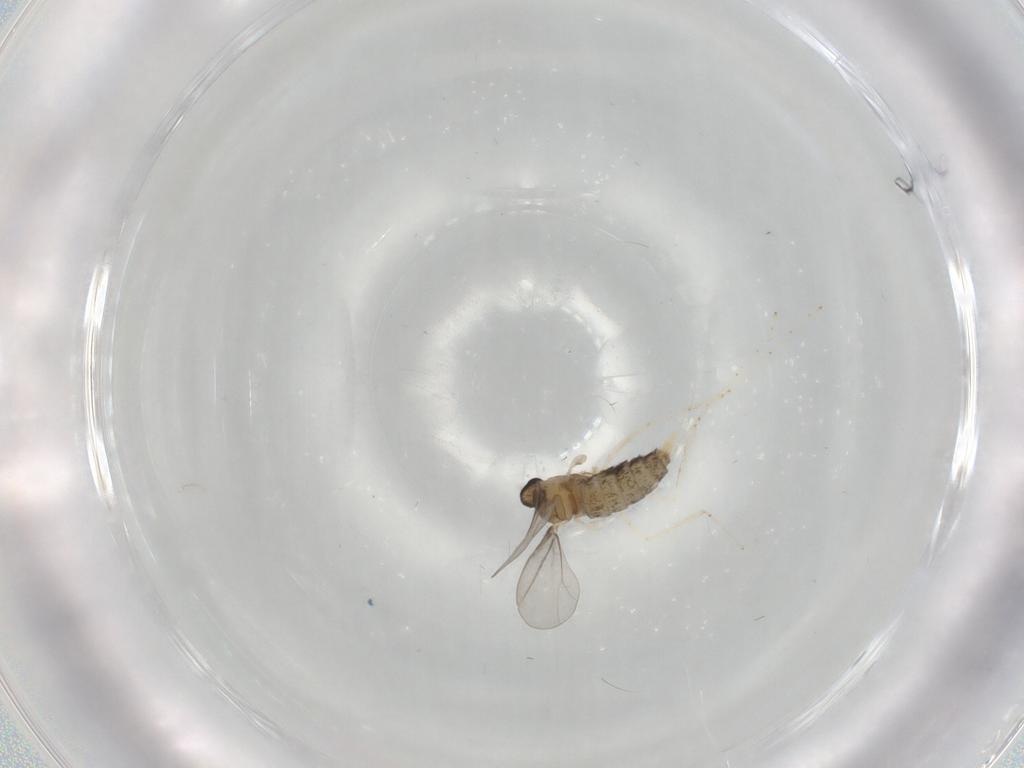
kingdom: Animalia
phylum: Arthropoda
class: Insecta
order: Diptera
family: Cecidomyiidae
